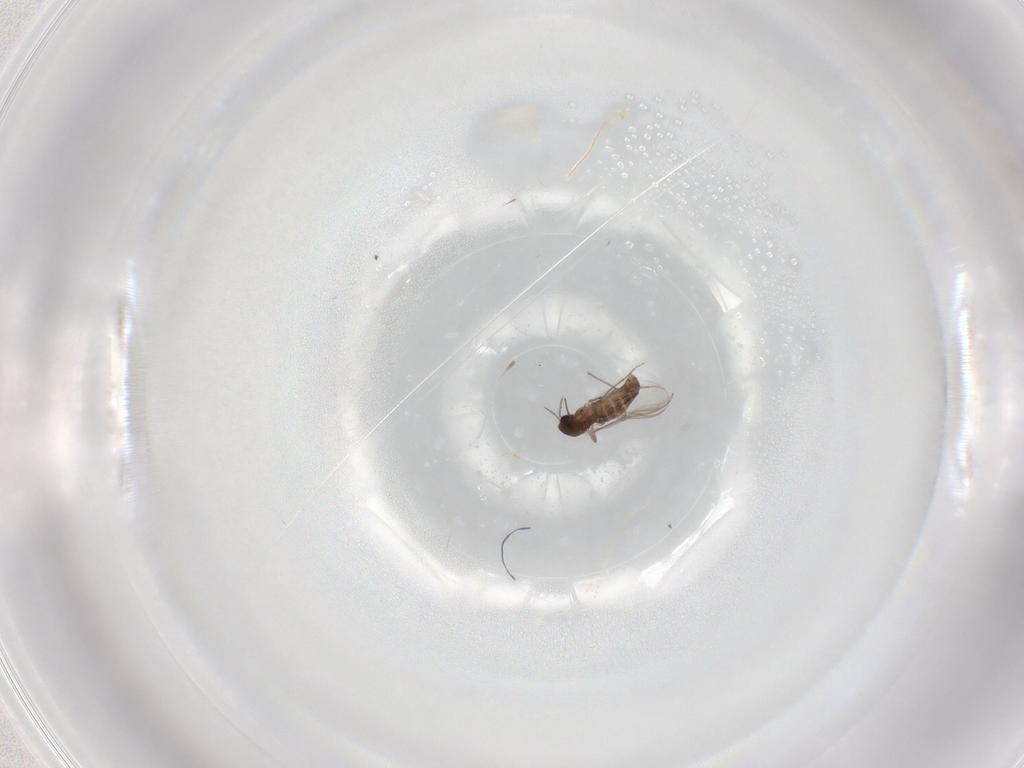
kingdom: Animalia
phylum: Arthropoda
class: Insecta
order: Diptera
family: Chironomidae
